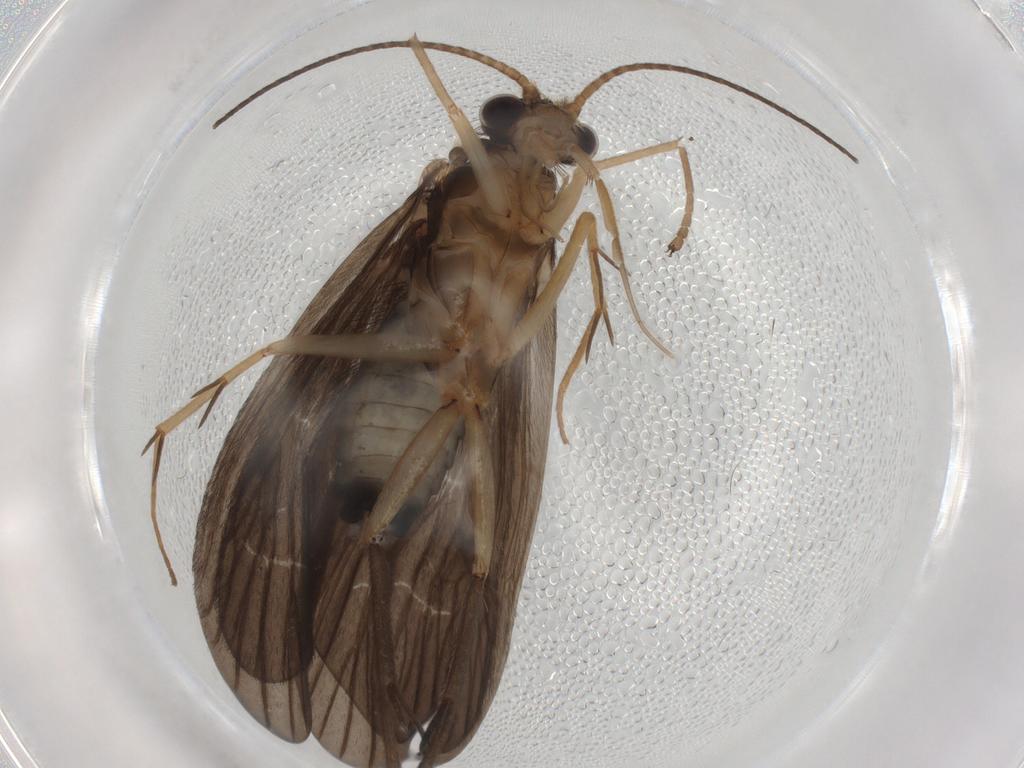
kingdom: Animalia
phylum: Arthropoda
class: Insecta
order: Trichoptera
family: Philopotamidae
